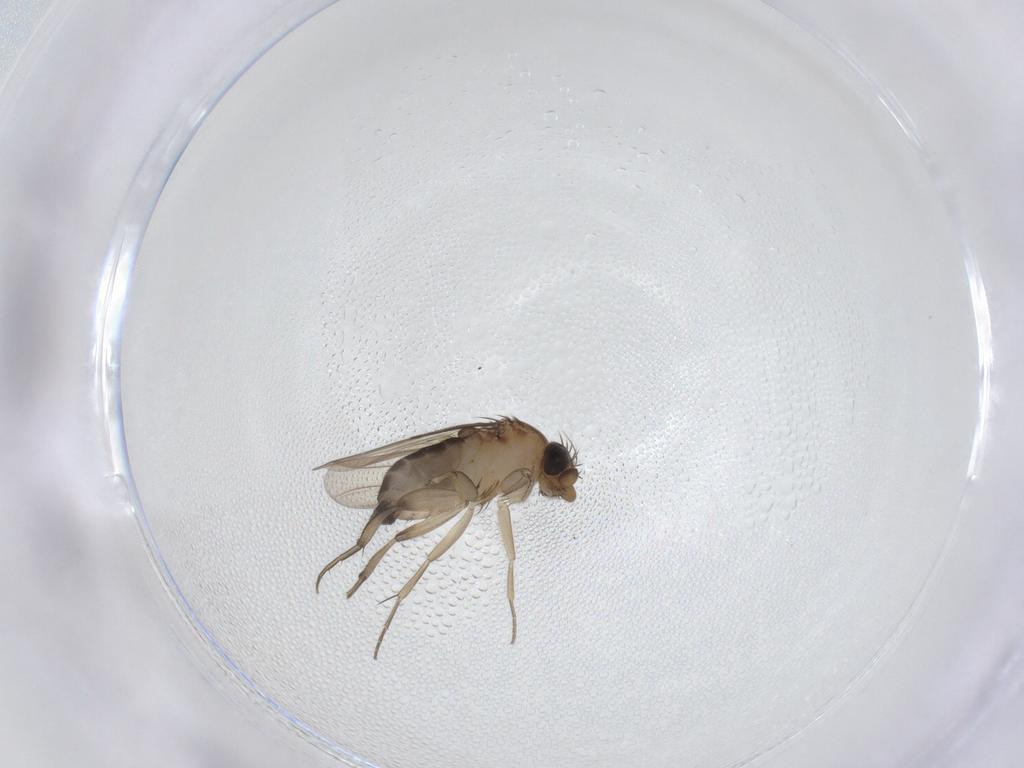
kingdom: Animalia
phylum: Arthropoda
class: Insecta
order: Diptera
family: Phoridae
